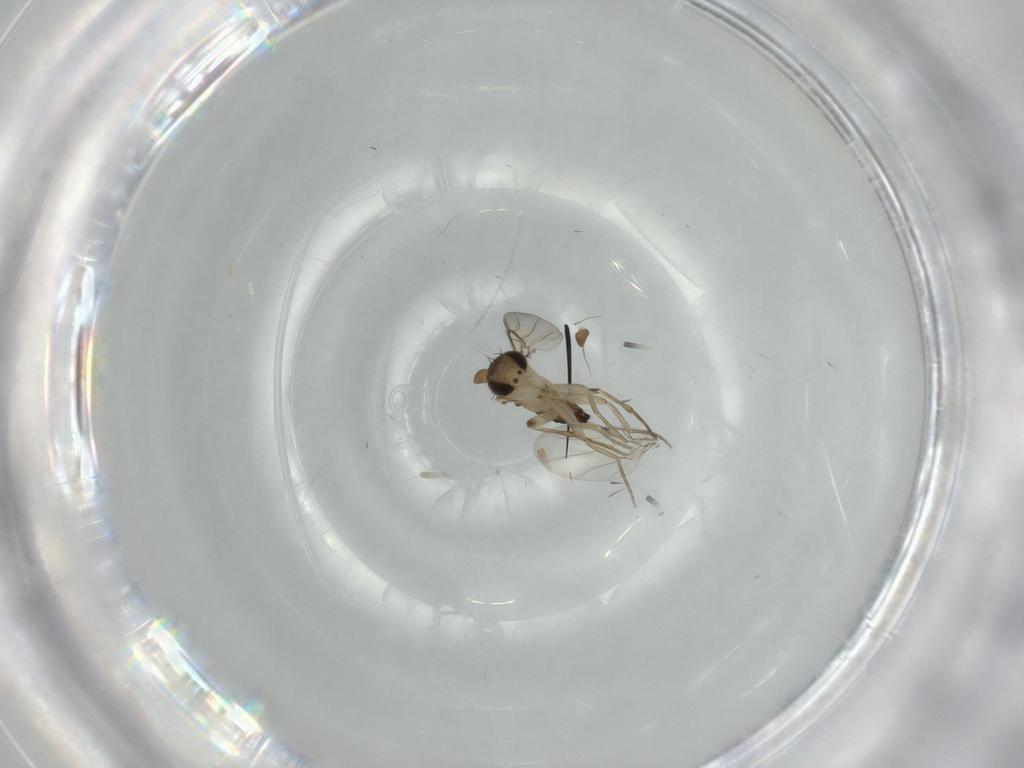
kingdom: Animalia
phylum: Arthropoda
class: Insecta
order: Diptera
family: Phoridae
